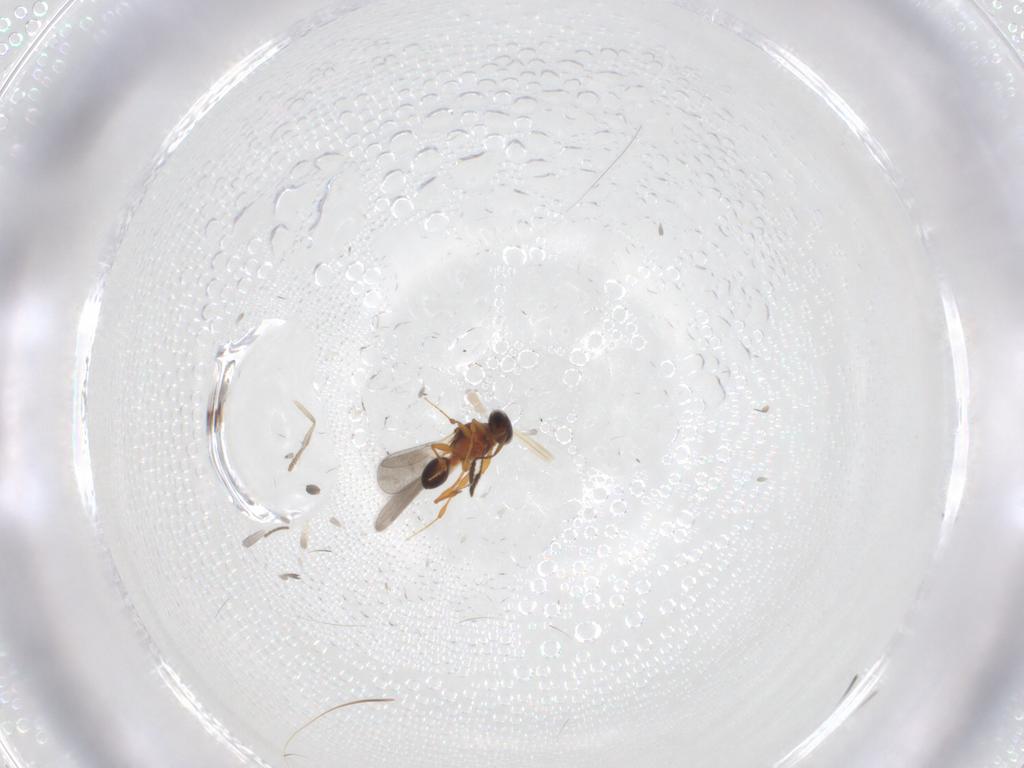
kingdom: Animalia
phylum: Arthropoda
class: Insecta
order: Hymenoptera
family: Platygastridae
